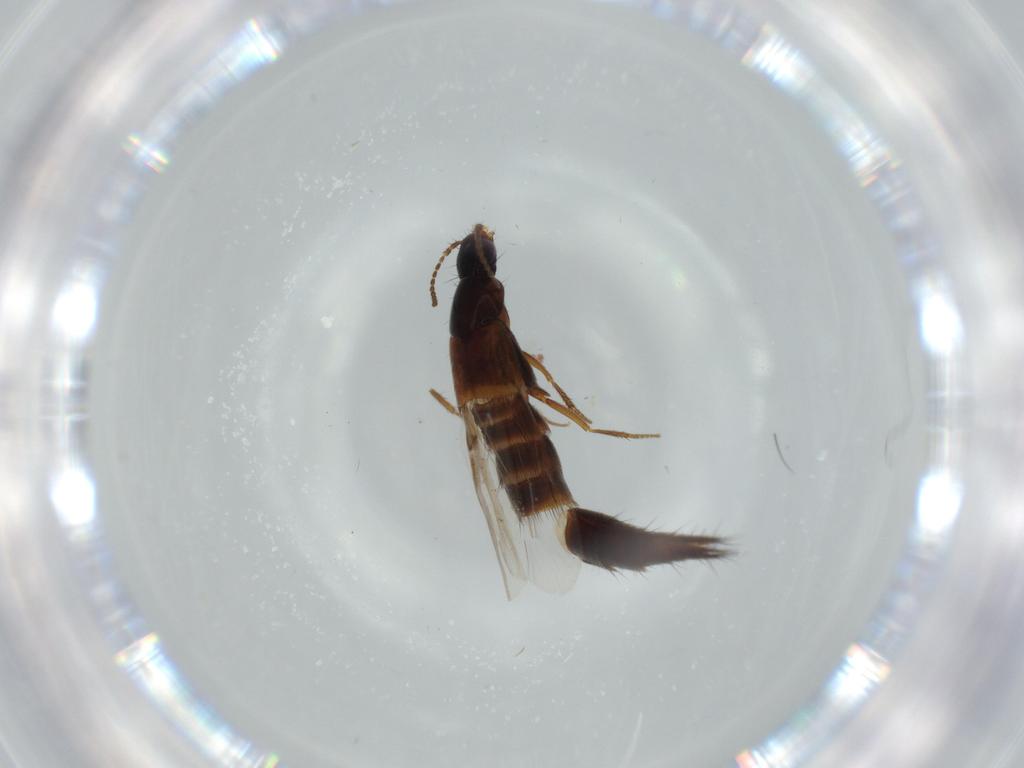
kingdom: Animalia
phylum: Arthropoda
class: Insecta
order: Coleoptera
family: Staphylinidae
